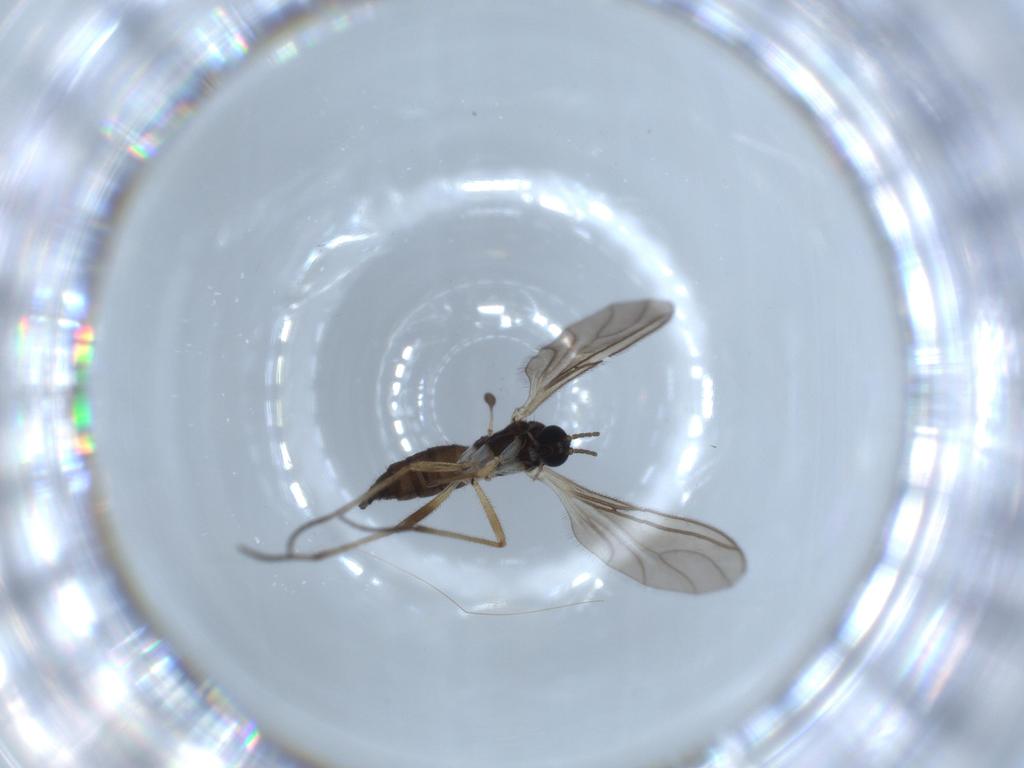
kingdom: Animalia
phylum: Arthropoda
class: Insecta
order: Diptera
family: Sciaridae
